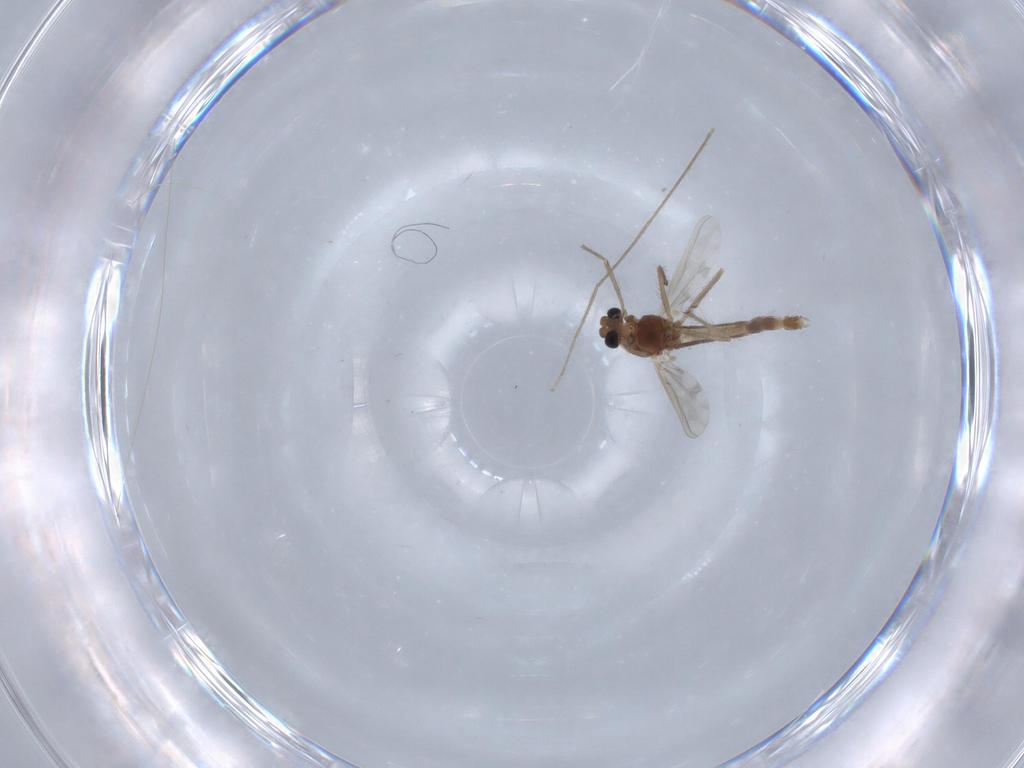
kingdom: Animalia
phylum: Arthropoda
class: Insecta
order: Diptera
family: Chironomidae
